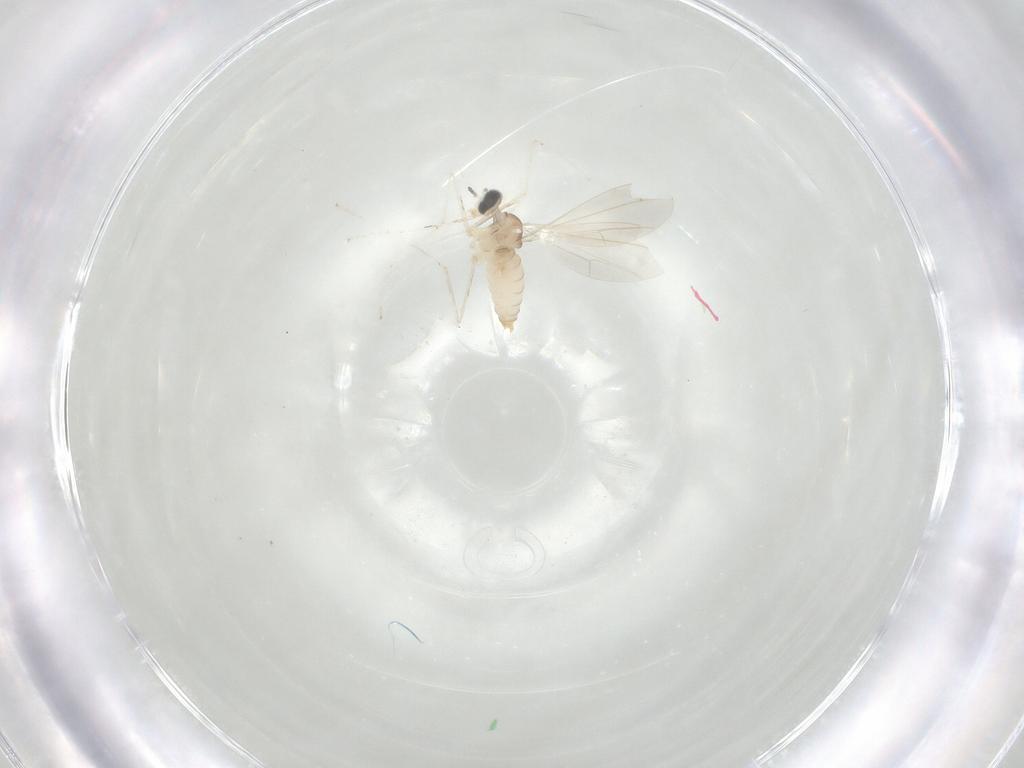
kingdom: Animalia
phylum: Arthropoda
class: Insecta
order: Diptera
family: Cecidomyiidae
